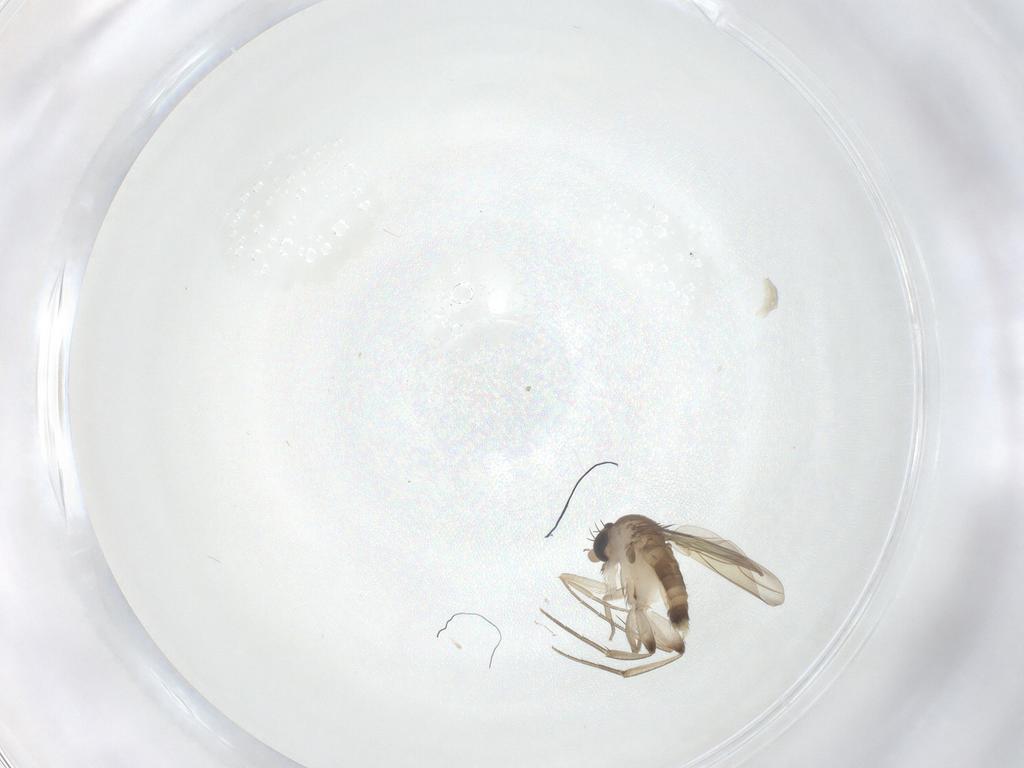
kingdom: Animalia
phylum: Arthropoda
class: Insecta
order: Diptera
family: Phoridae
